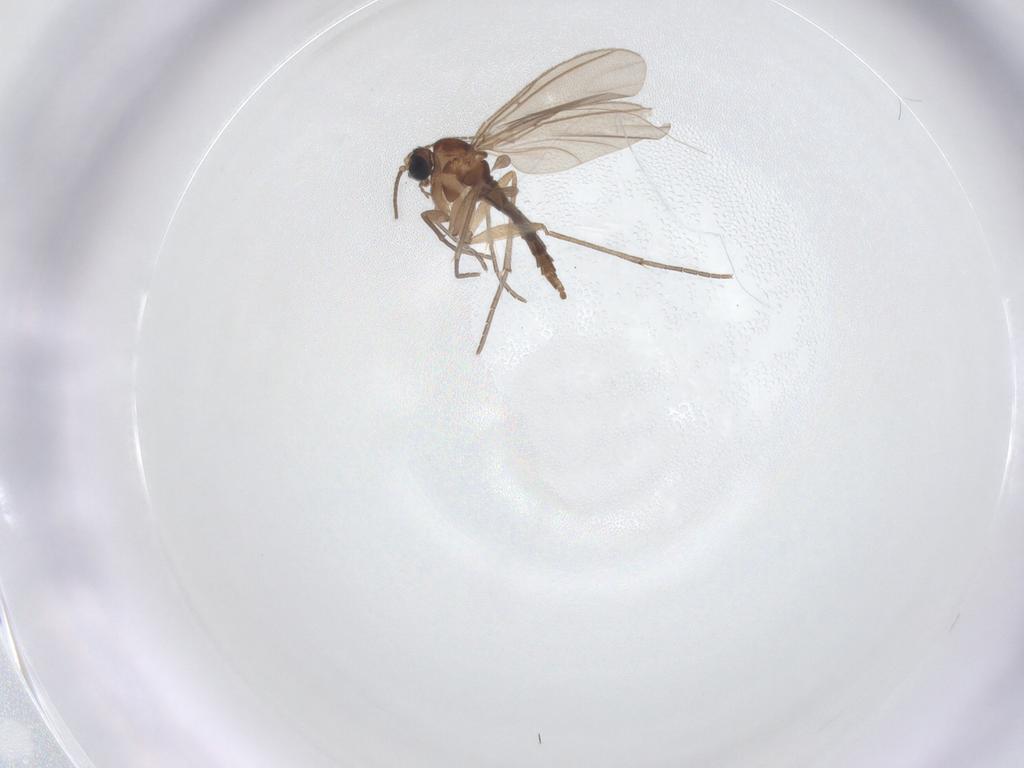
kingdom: Animalia
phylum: Arthropoda
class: Insecta
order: Diptera
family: Sciaridae
